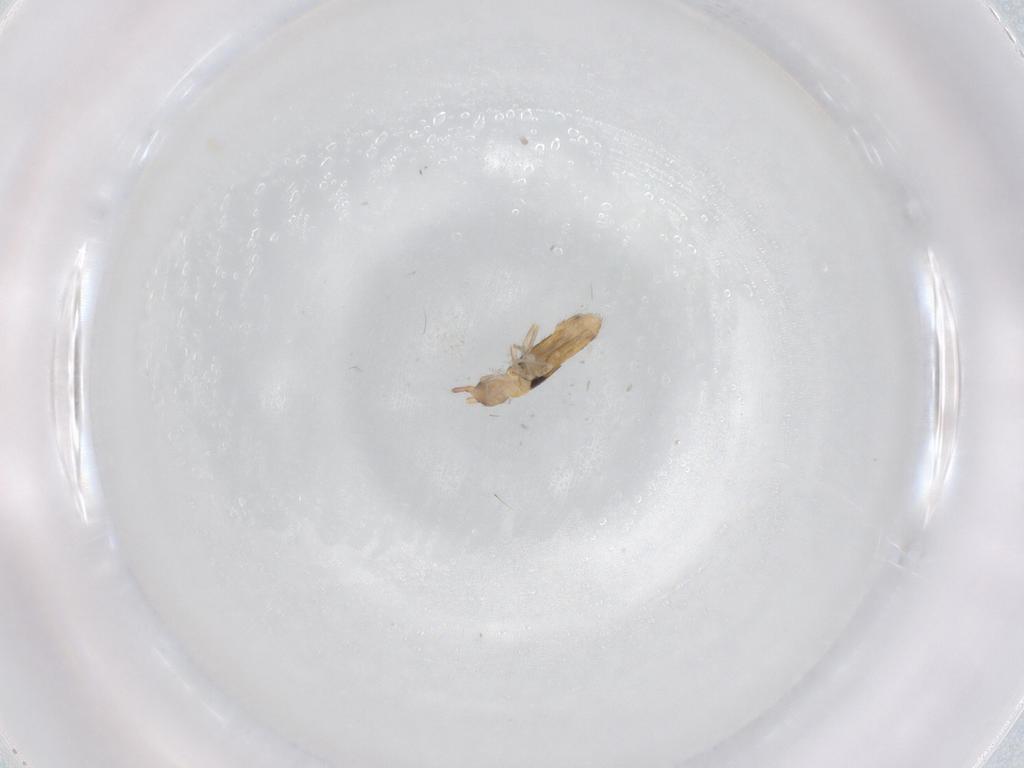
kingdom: Animalia
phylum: Arthropoda
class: Collembola
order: Entomobryomorpha
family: Entomobryidae
